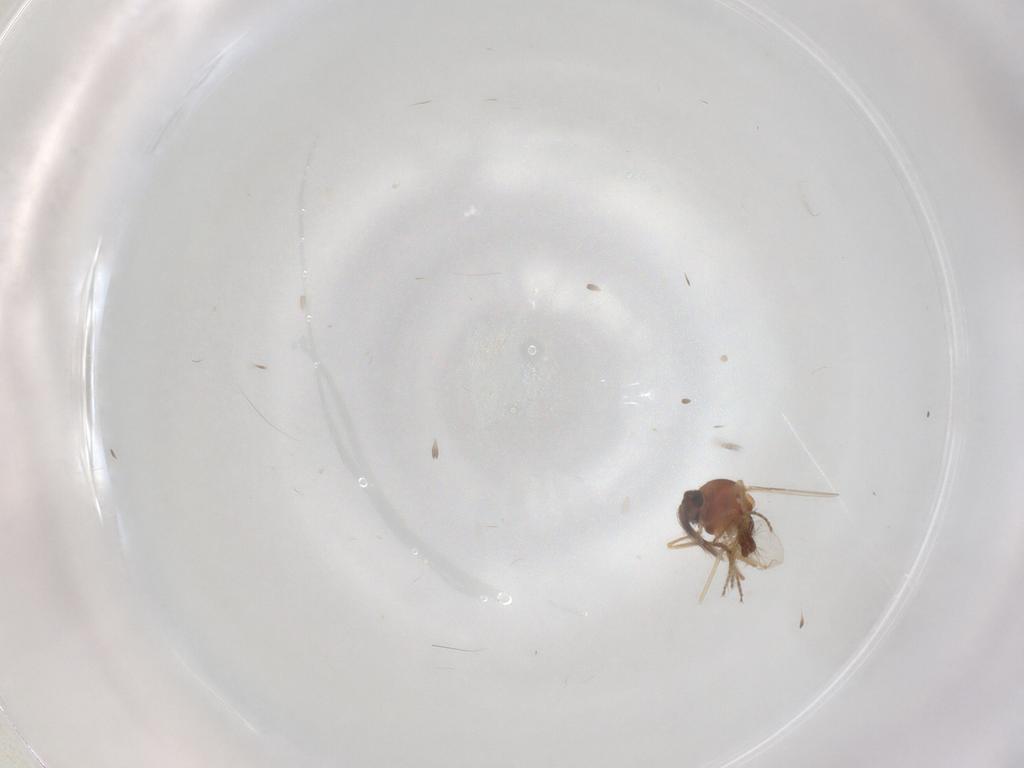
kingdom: Animalia
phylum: Arthropoda
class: Insecta
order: Diptera
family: Ceratopogonidae
